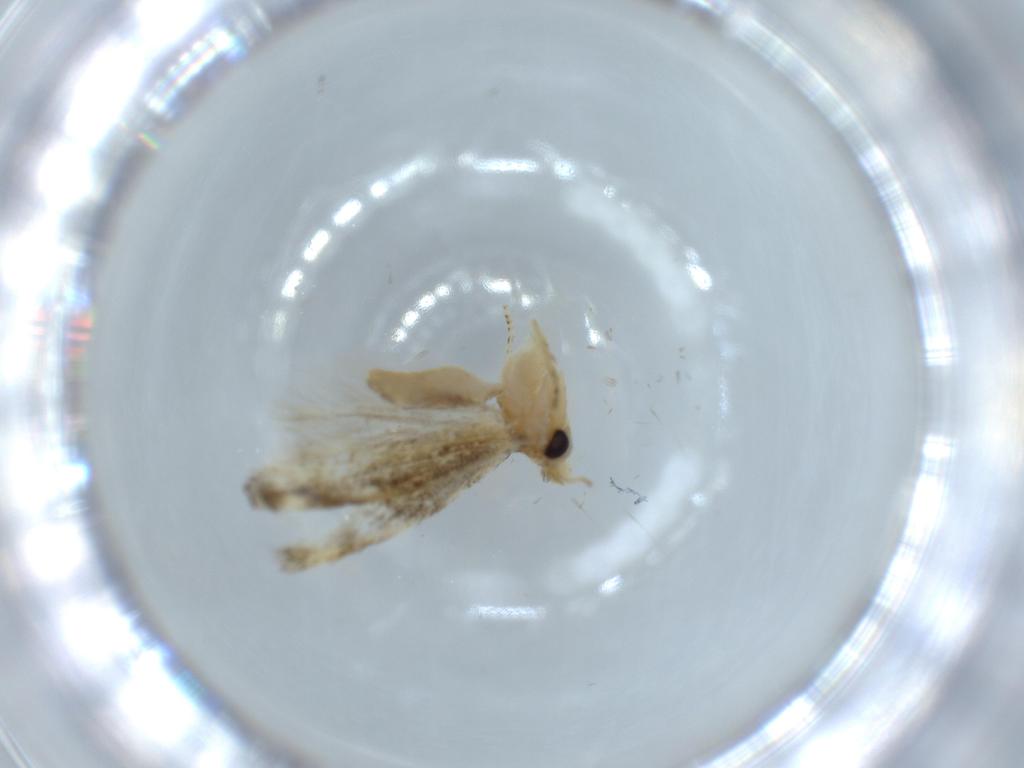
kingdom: Animalia
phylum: Arthropoda
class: Insecta
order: Lepidoptera
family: Bucculatricidae
